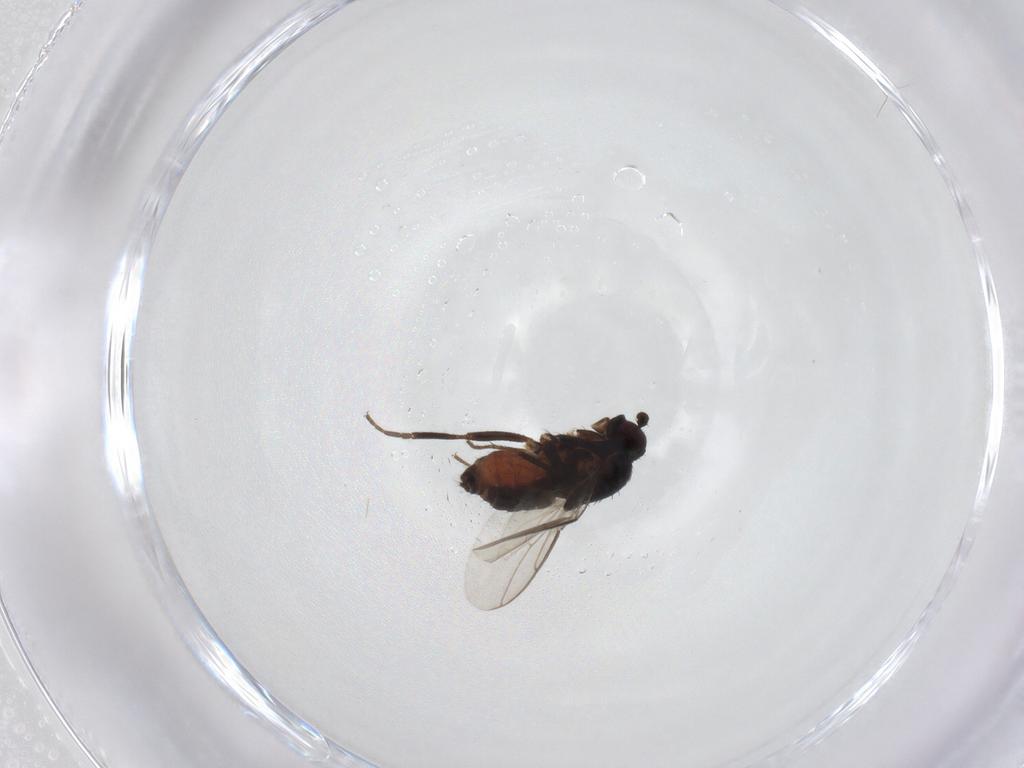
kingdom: Animalia
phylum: Arthropoda
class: Insecta
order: Diptera
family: Sphaeroceridae
